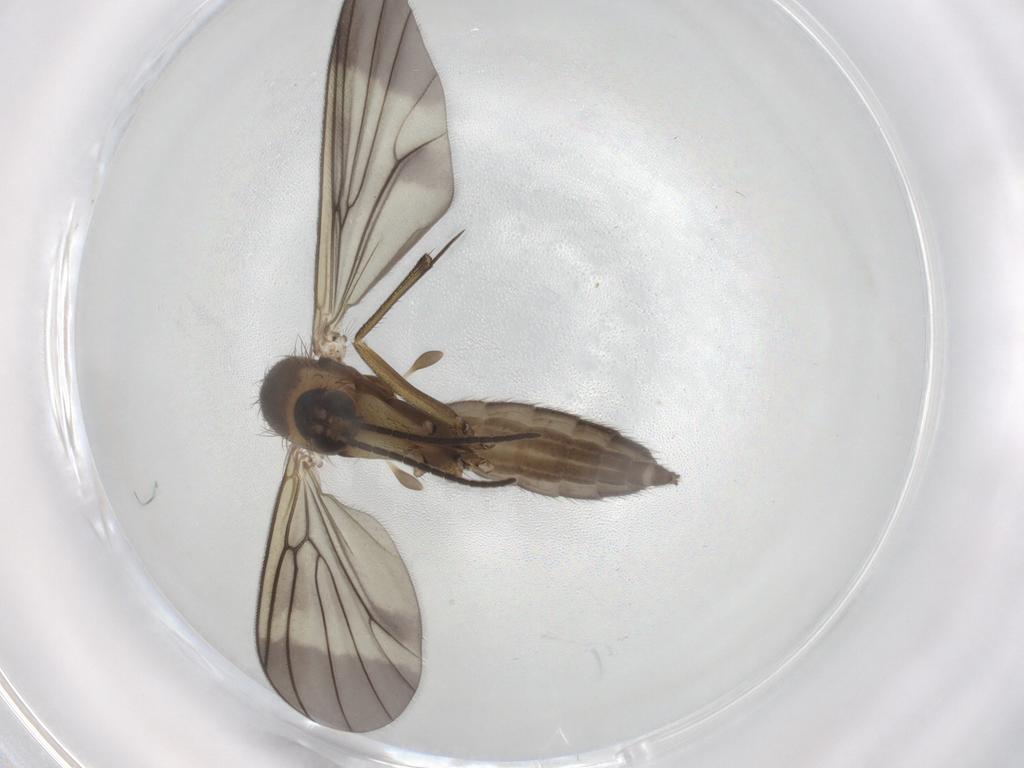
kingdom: Animalia
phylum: Arthropoda
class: Insecta
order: Diptera
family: Mycetophilidae
